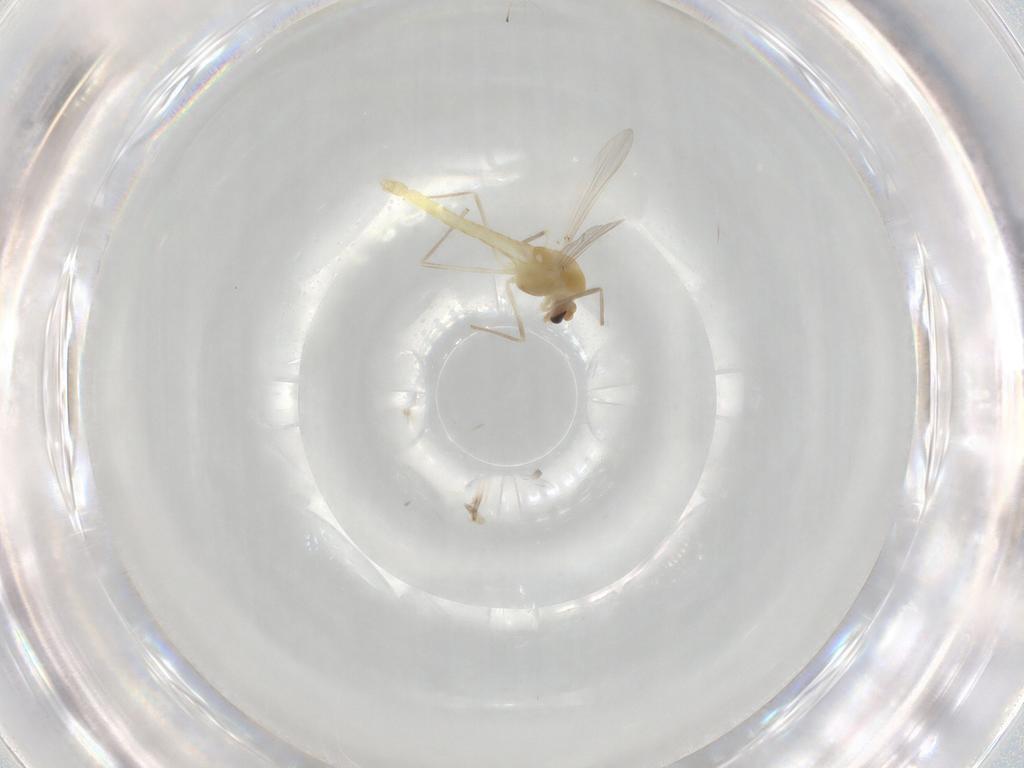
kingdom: Animalia
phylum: Arthropoda
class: Insecta
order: Diptera
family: Chironomidae
